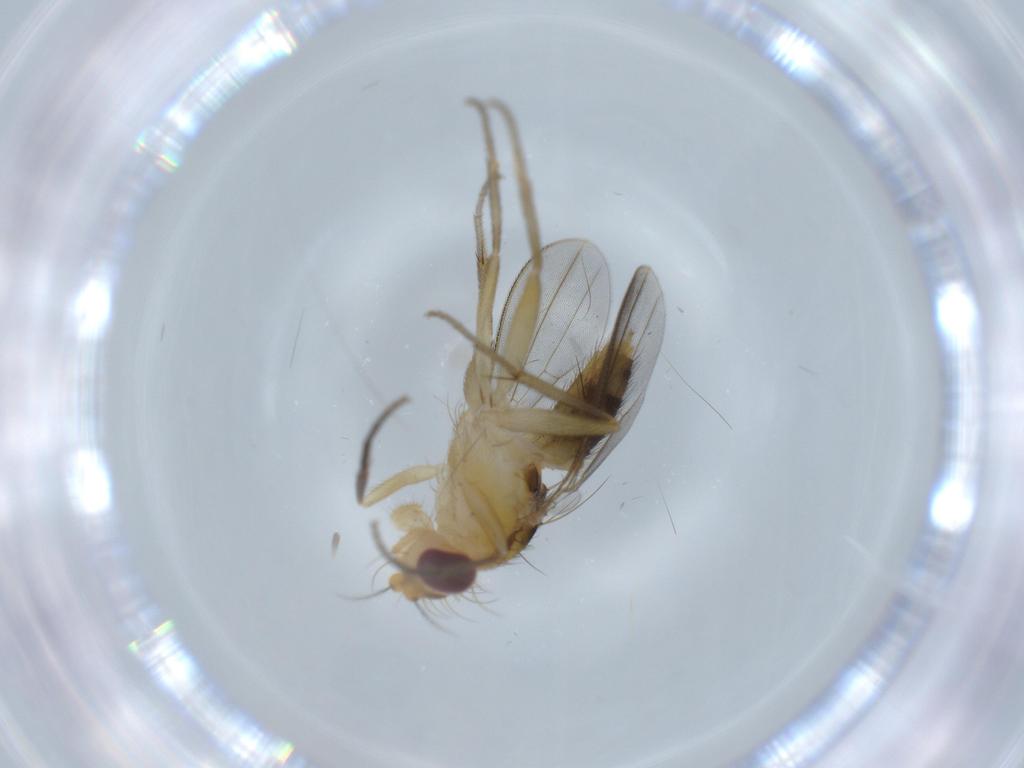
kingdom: Animalia
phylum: Arthropoda
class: Insecta
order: Diptera
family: Clusiidae
